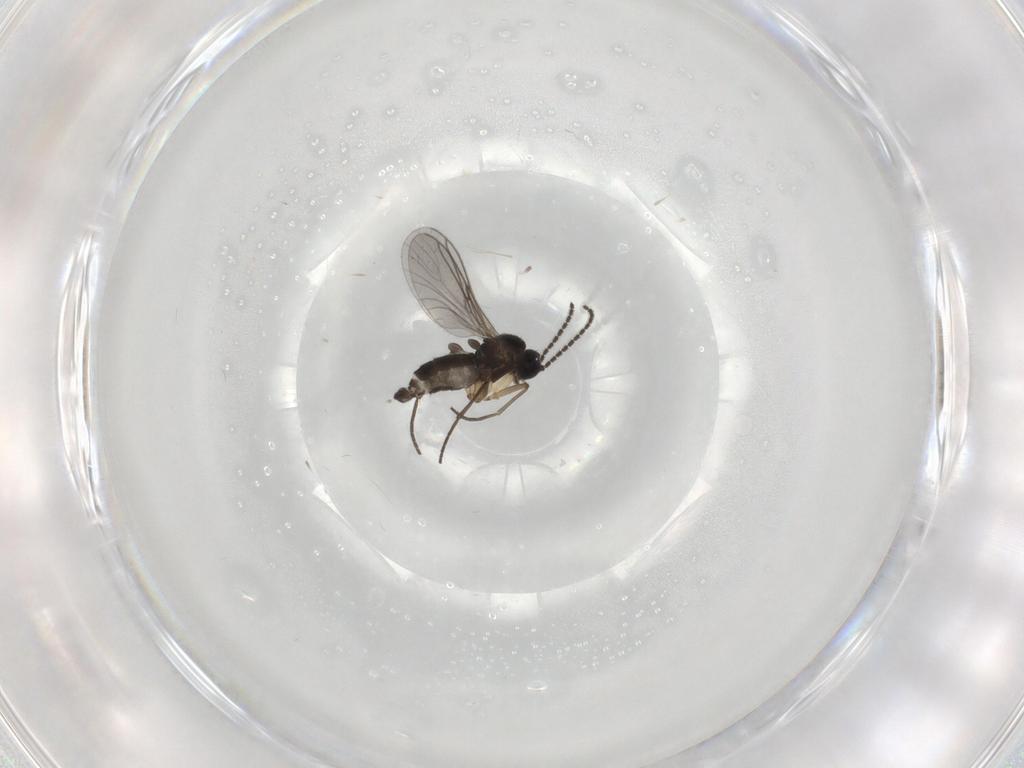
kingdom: Animalia
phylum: Arthropoda
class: Insecta
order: Diptera
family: Sciaridae
